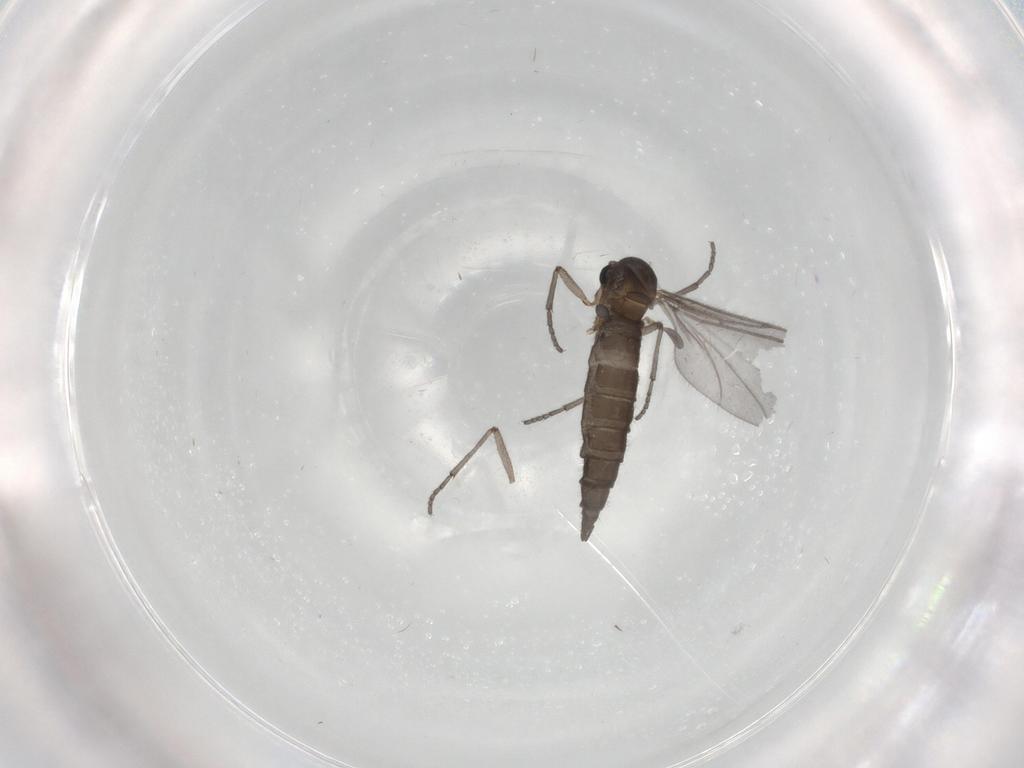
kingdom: Animalia
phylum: Arthropoda
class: Insecta
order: Diptera
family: Sciaridae
